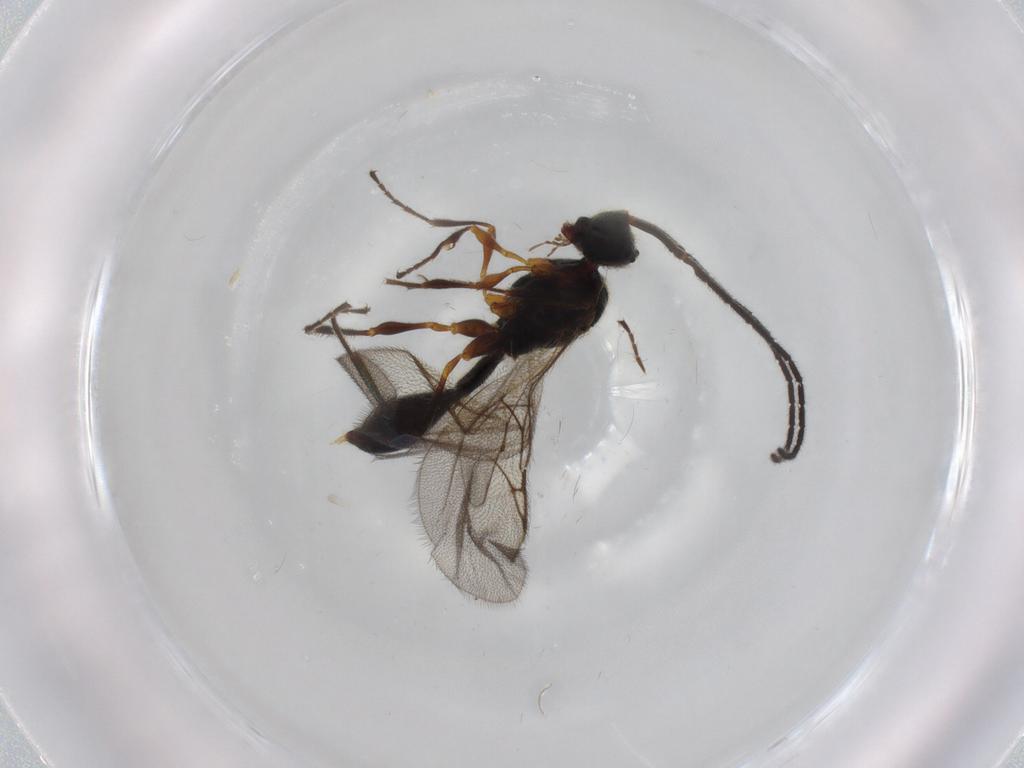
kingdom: Animalia
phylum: Arthropoda
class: Insecta
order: Hymenoptera
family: Diapriidae
